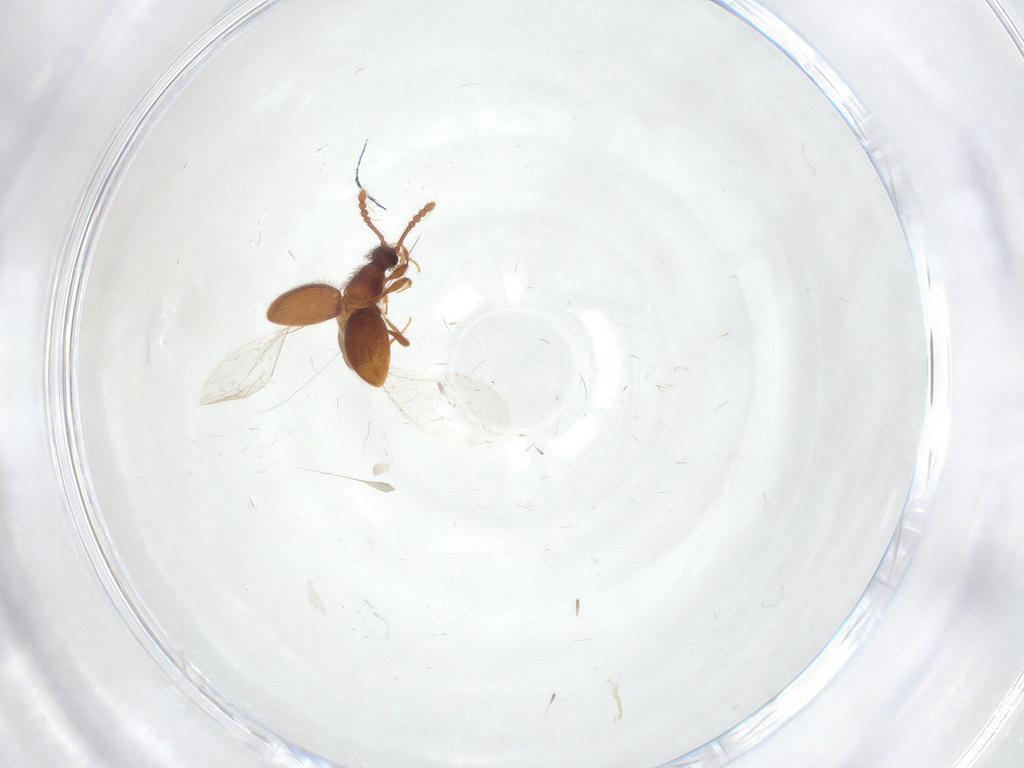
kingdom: Animalia
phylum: Arthropoda
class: Insecta
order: Coleoptera
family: Staphylinidae
